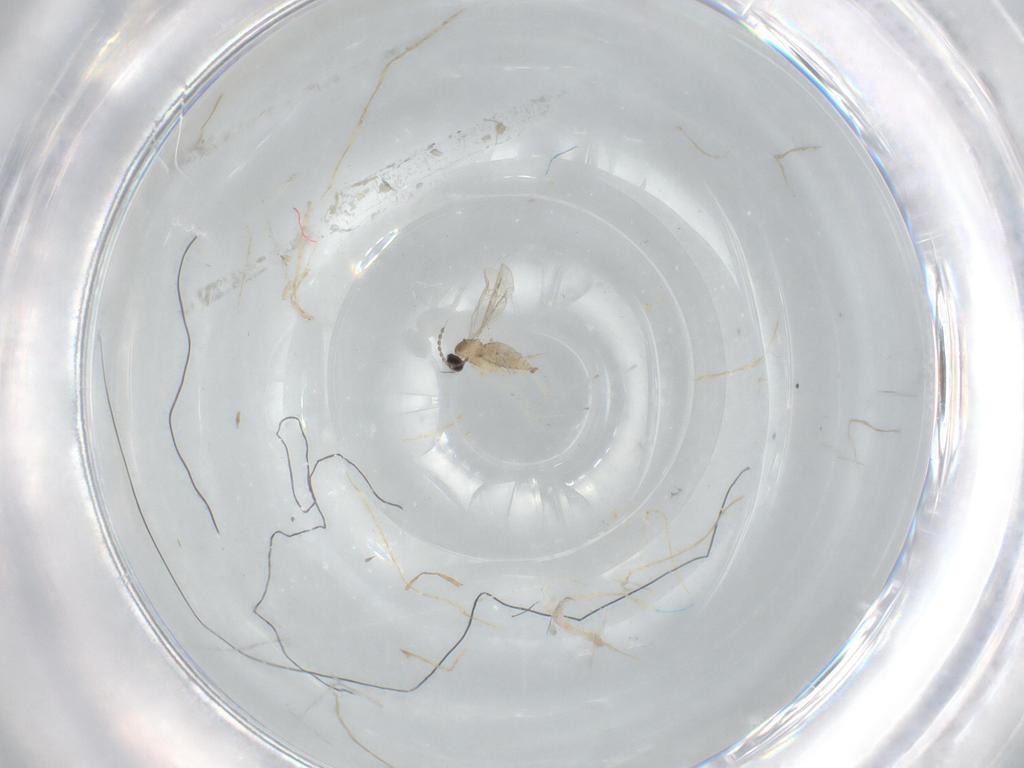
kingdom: Animalia
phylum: Arthropoda
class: Insecta
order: Diptera
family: Cecidomyiidae
